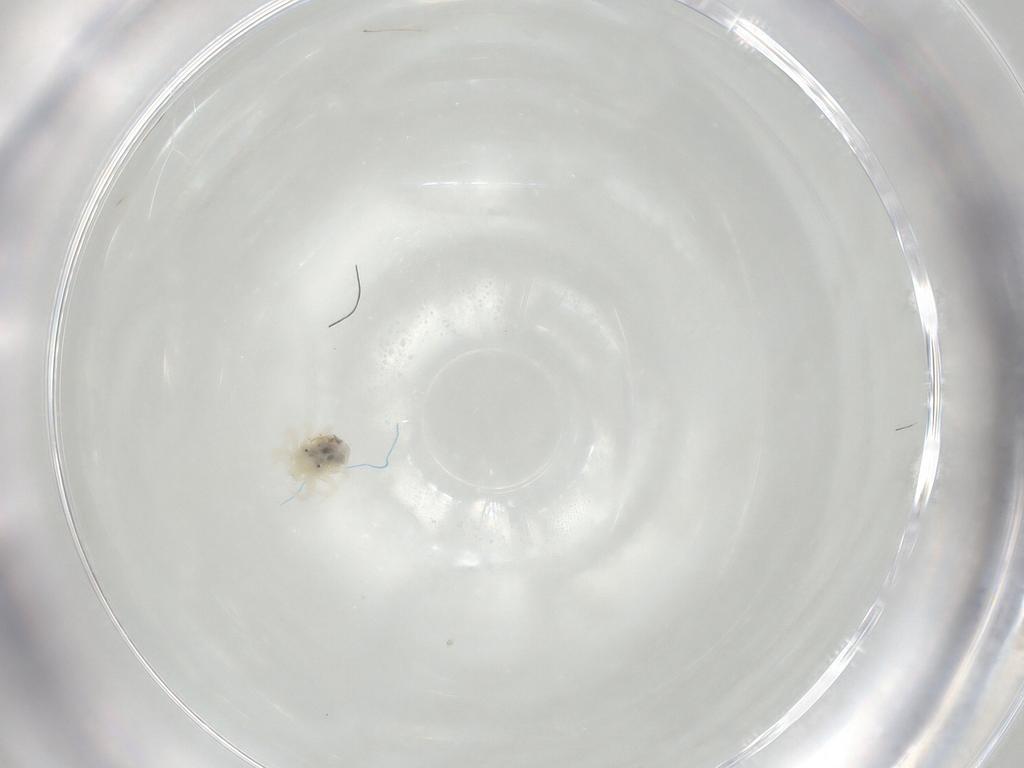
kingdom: Animalia
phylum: Arthropoda
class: Arachnida
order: Trombidiformes
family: Anystidae
